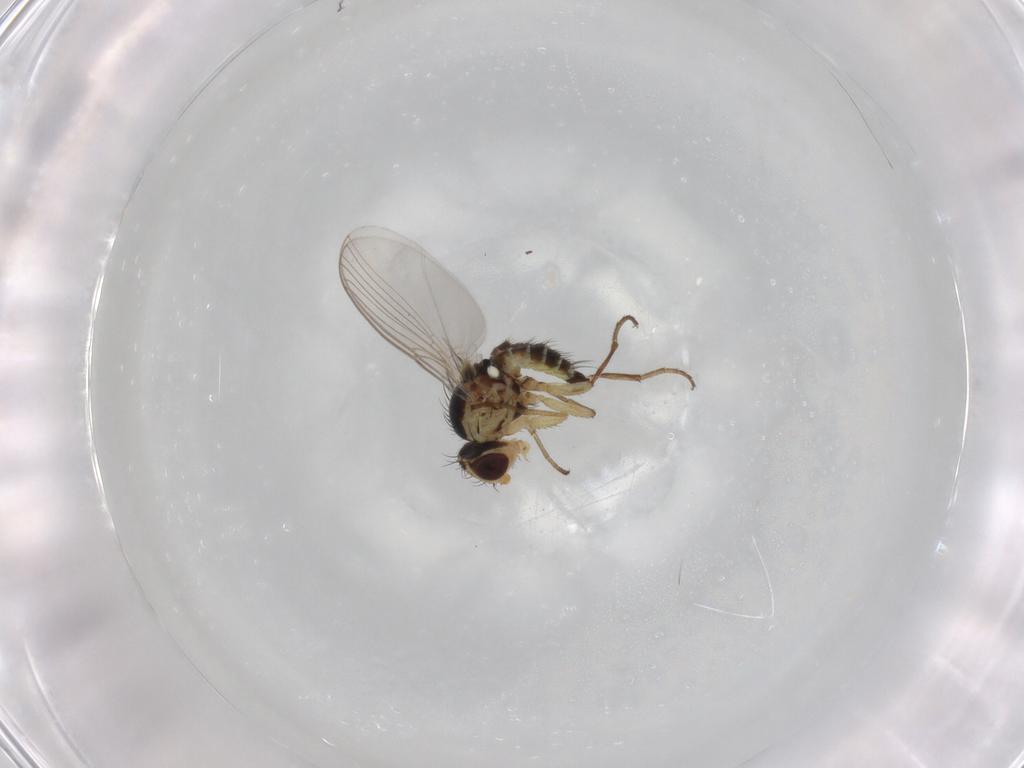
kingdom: Animalia
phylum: Arthropoda
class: Insecta
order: Diptera
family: Agromyzidae
